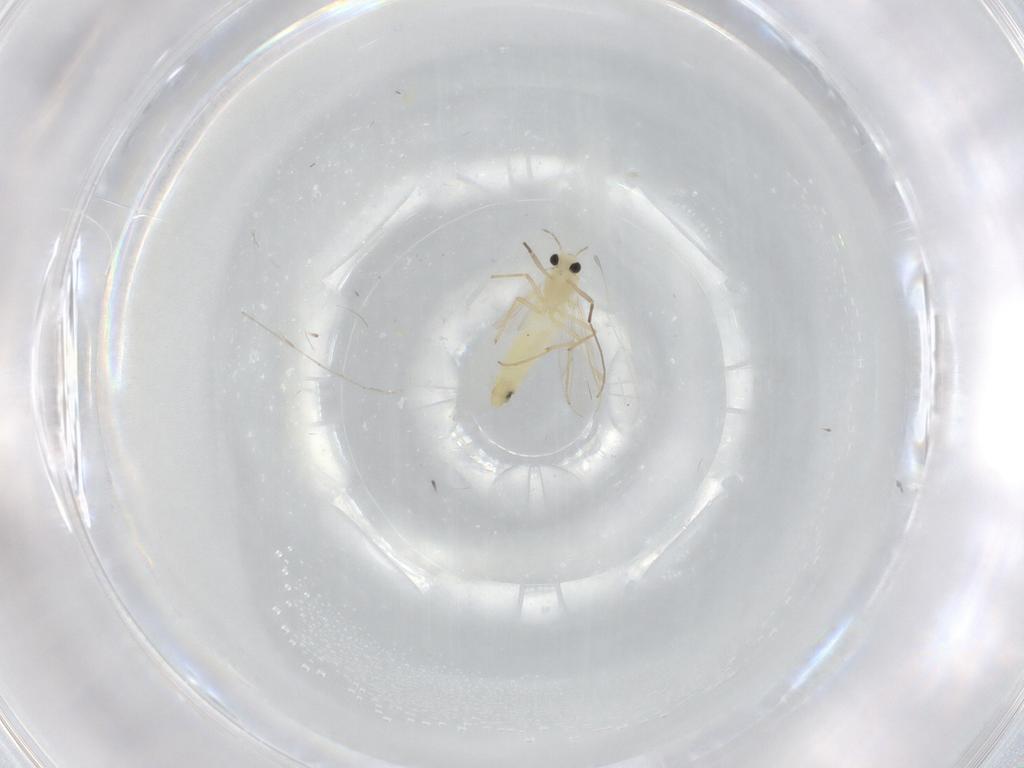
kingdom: Animalia
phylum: Arthropoda
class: Insecta
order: Diptera
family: Chironomidae
